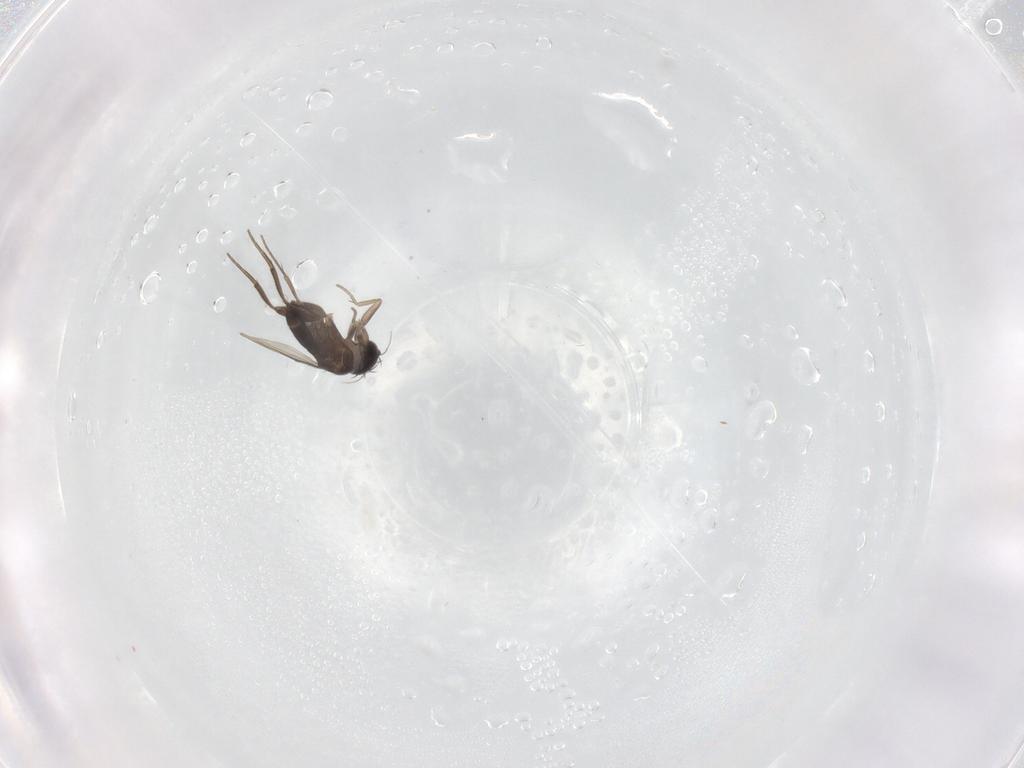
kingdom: Animalia
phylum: Arthropoda
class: Insecta
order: Diptera
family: Phoridae
